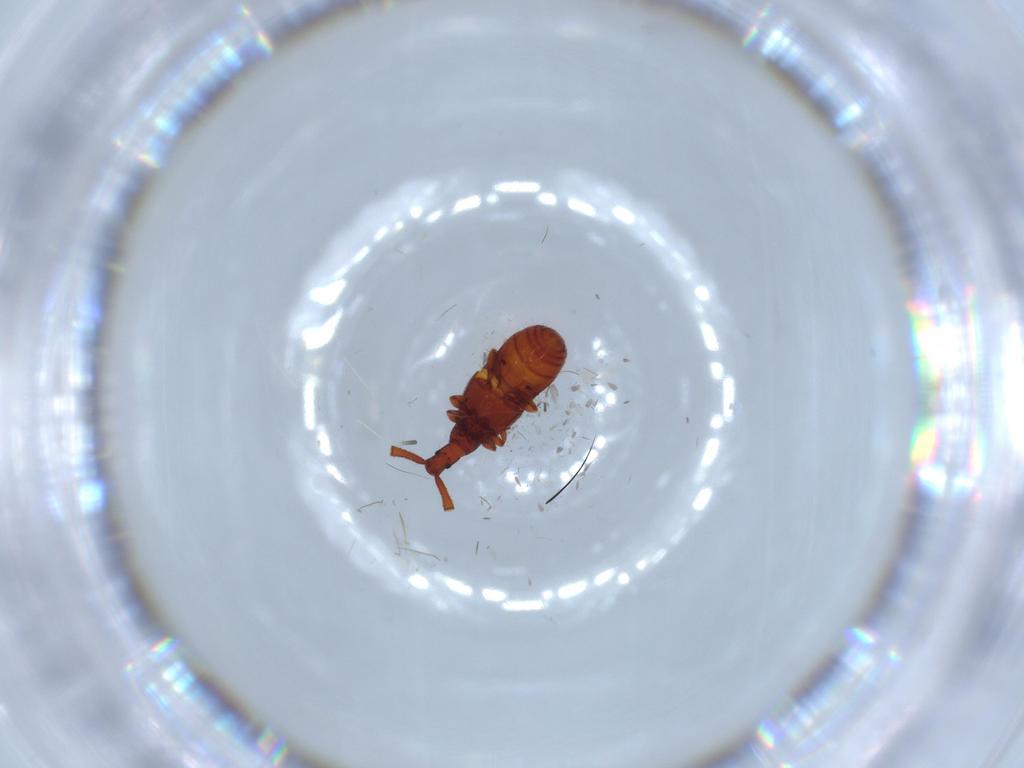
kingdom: Animalia
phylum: Arthropoda
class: Insecta
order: Coleoptera
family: Staphylinidae
